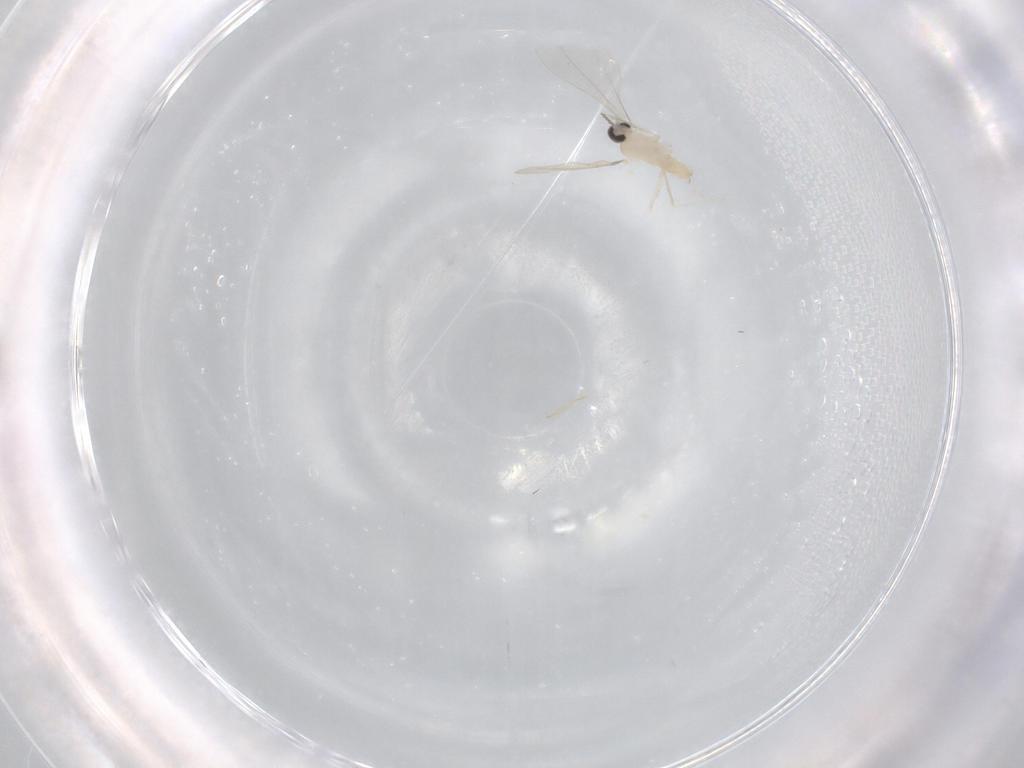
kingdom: Animalia
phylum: Arthropoda
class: Insecta
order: Diptera
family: Cecidomyiidae
